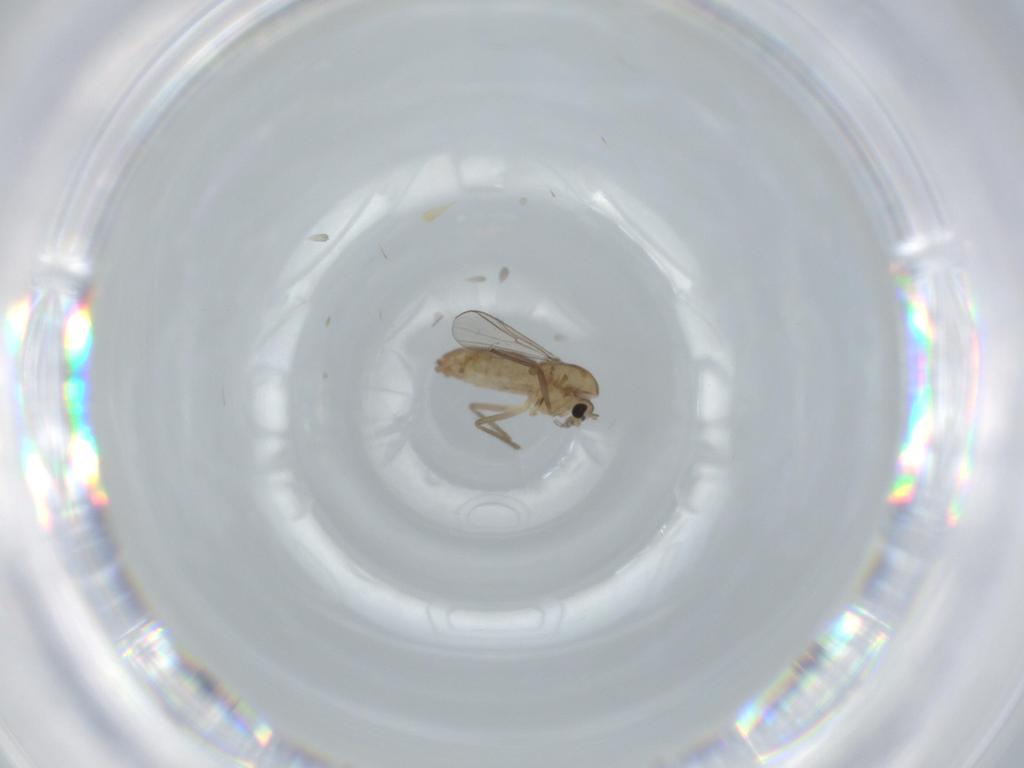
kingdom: Animalia
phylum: Arthropoda
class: Insecta
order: Diptera
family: Chironomidae
